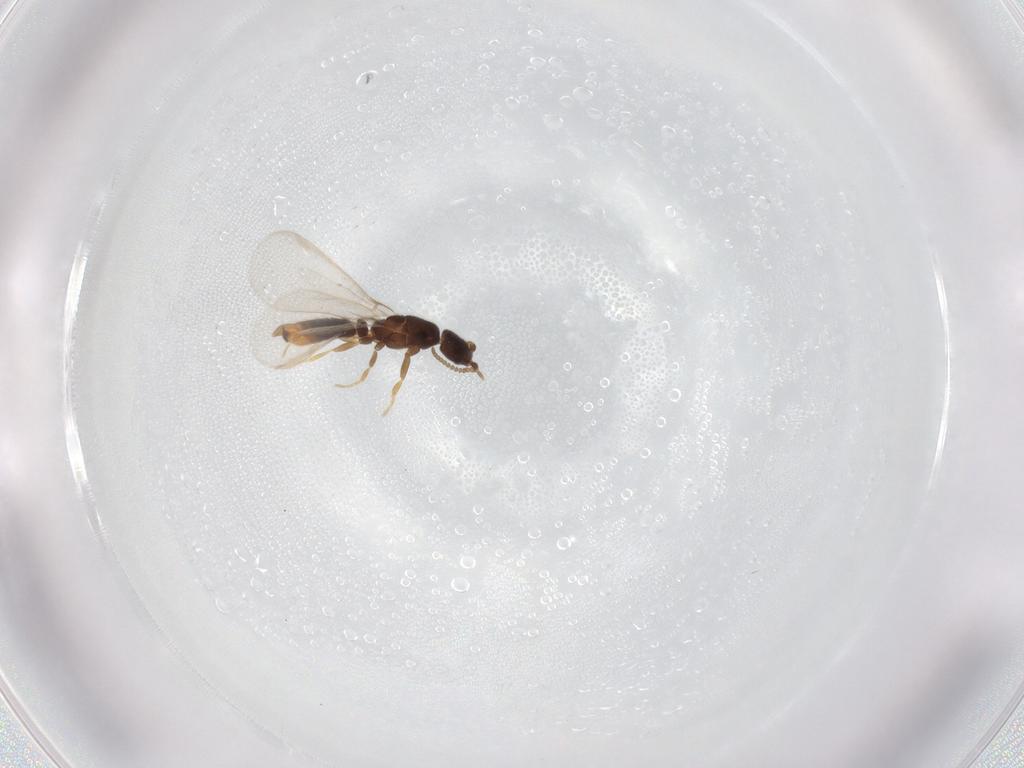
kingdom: Animalia
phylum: Arthropoda
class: Insecta
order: Hymenoptera
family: Formicidae
